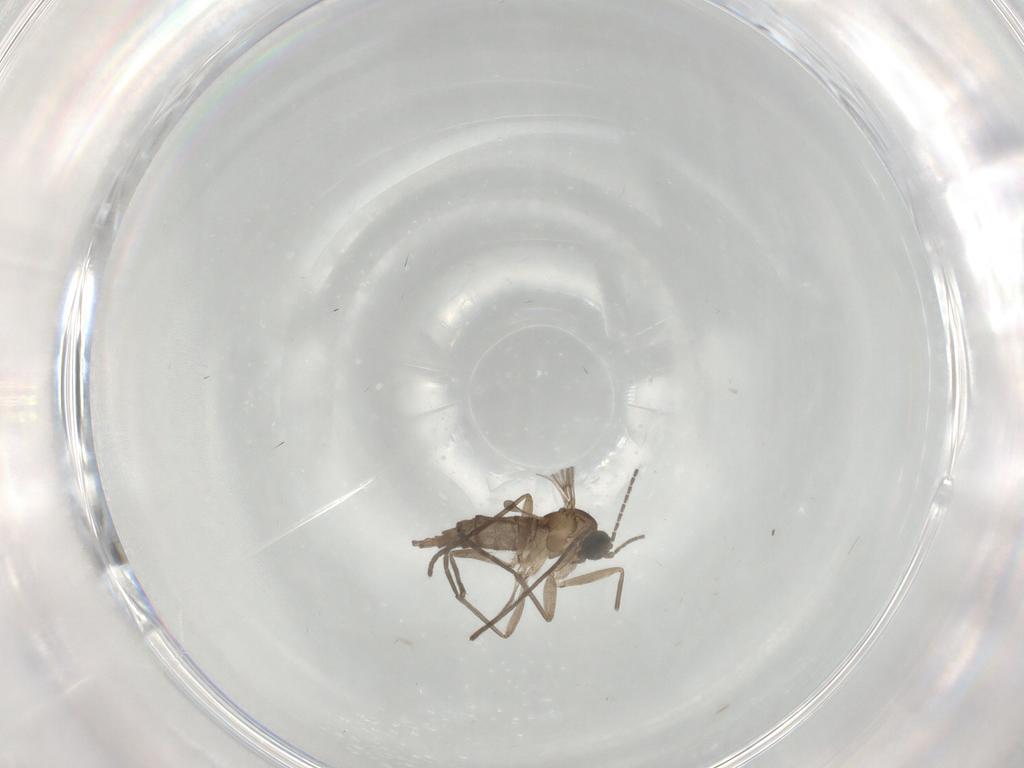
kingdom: Animalia
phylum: Arthropoda
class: Insecta
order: Diptera
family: Sciaridae
